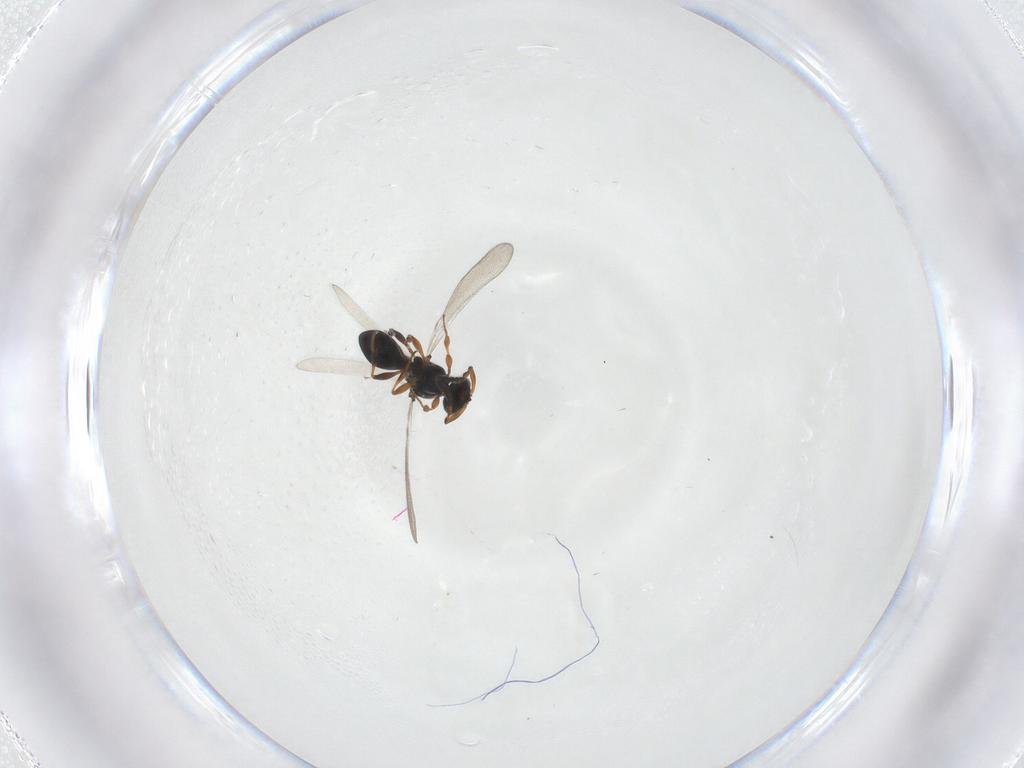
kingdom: Animalia
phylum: Arthropoda
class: Insecta
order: Hymenoptera
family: Platygastridae
